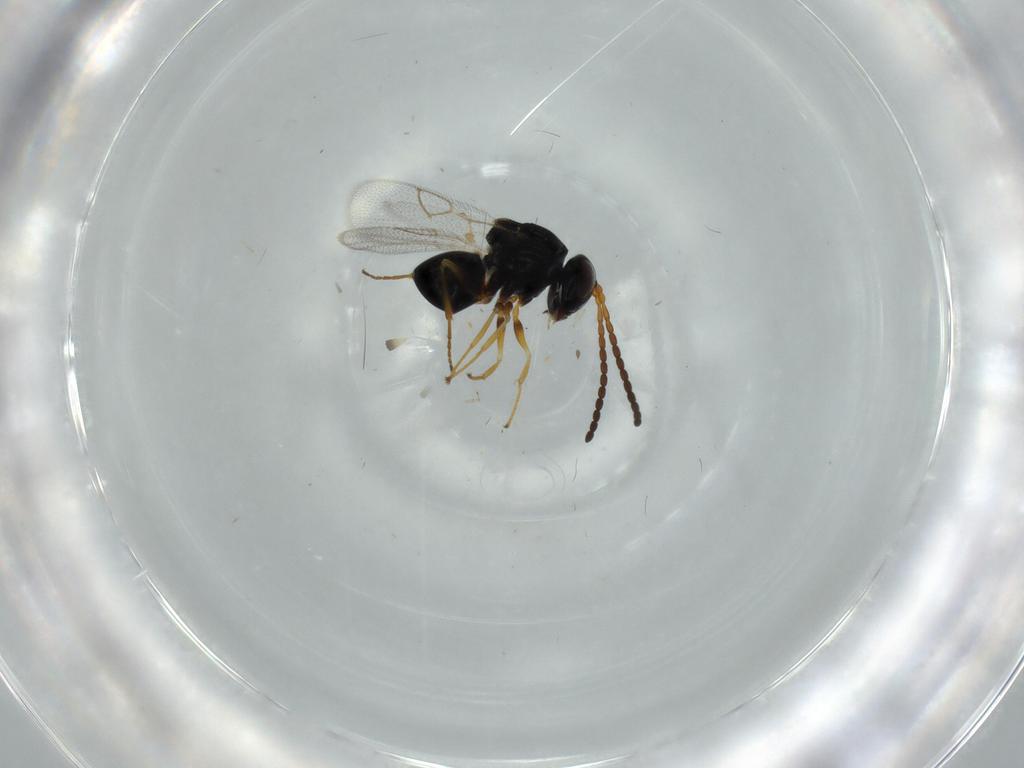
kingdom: Animalia
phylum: Arthropoda
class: Insecta
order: Hymenoptera
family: Figitidae
